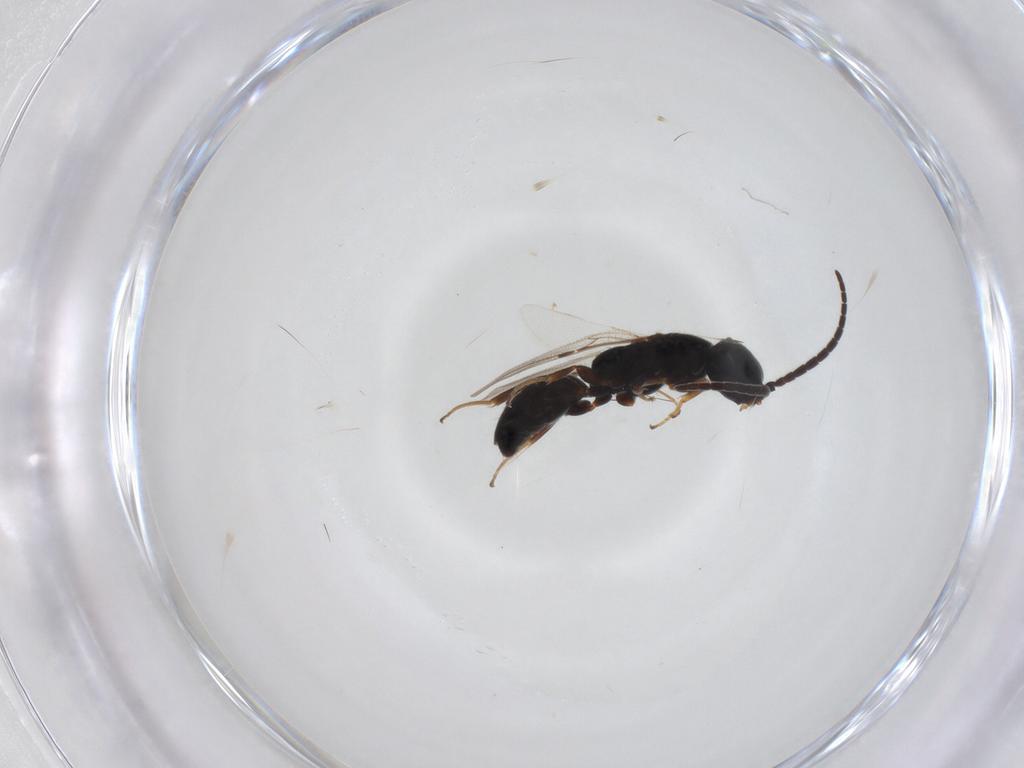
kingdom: Animalia
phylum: Arthropoda
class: Insecta
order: Hymenoptera
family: Bethylidae
